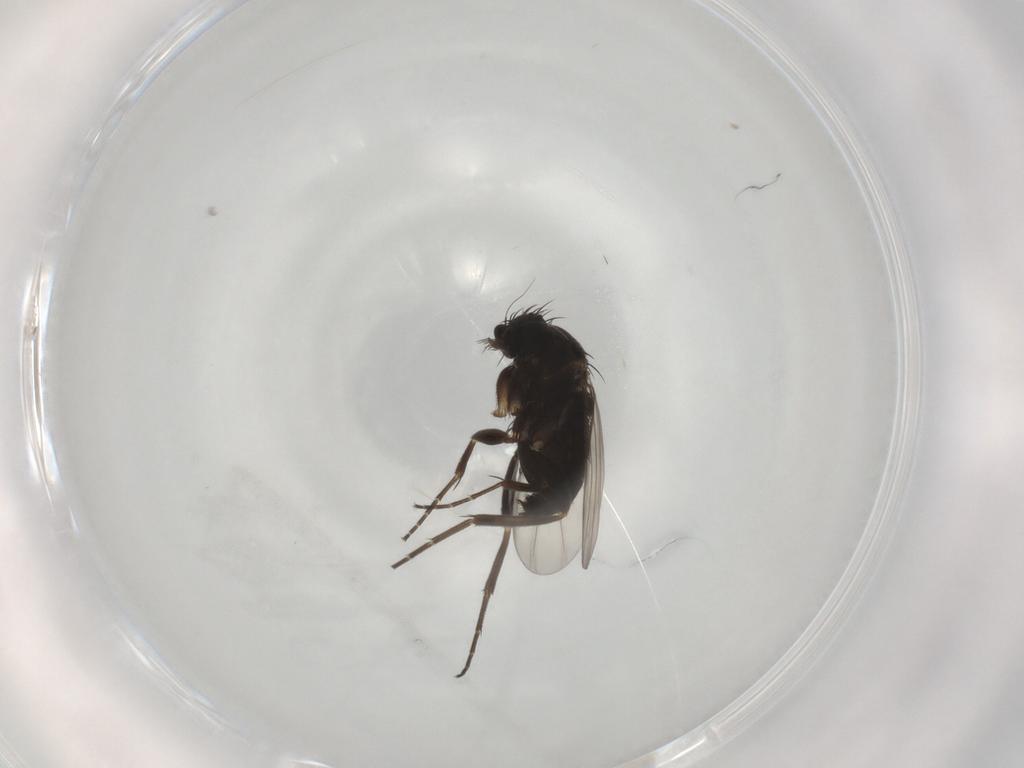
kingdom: Animalia
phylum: Arthropoda
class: Insecta
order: Diptera
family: Phoridae
